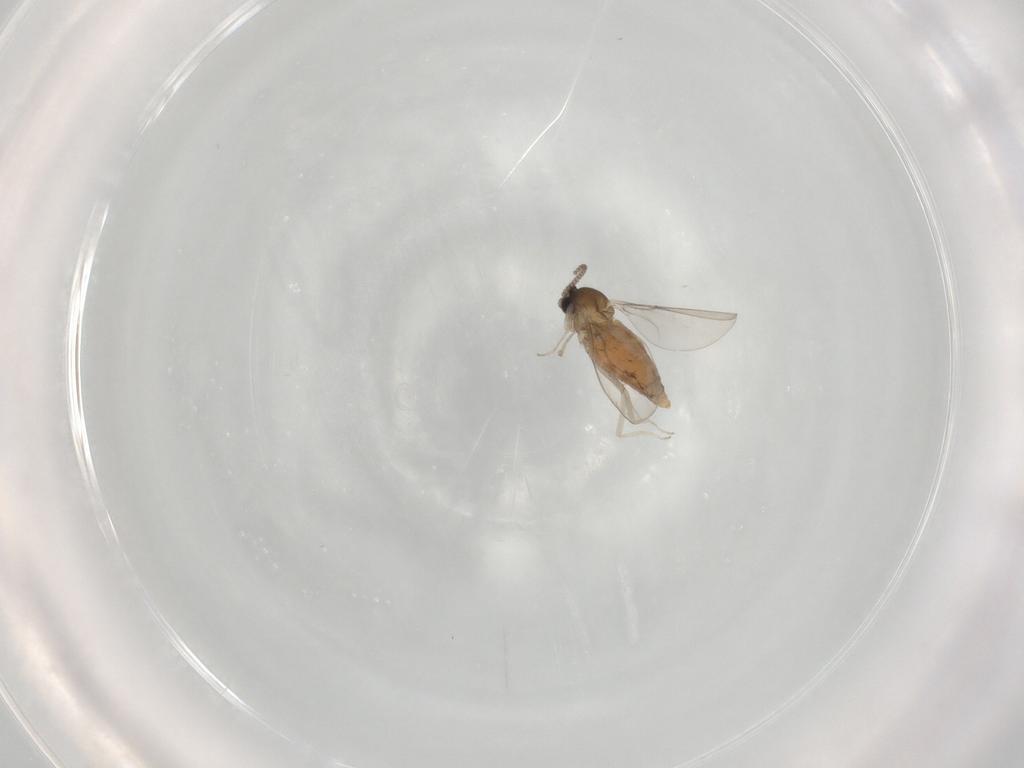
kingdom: Animalia
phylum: Arthropoda
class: Insecta
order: Diptera
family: Cecidomyiidae
